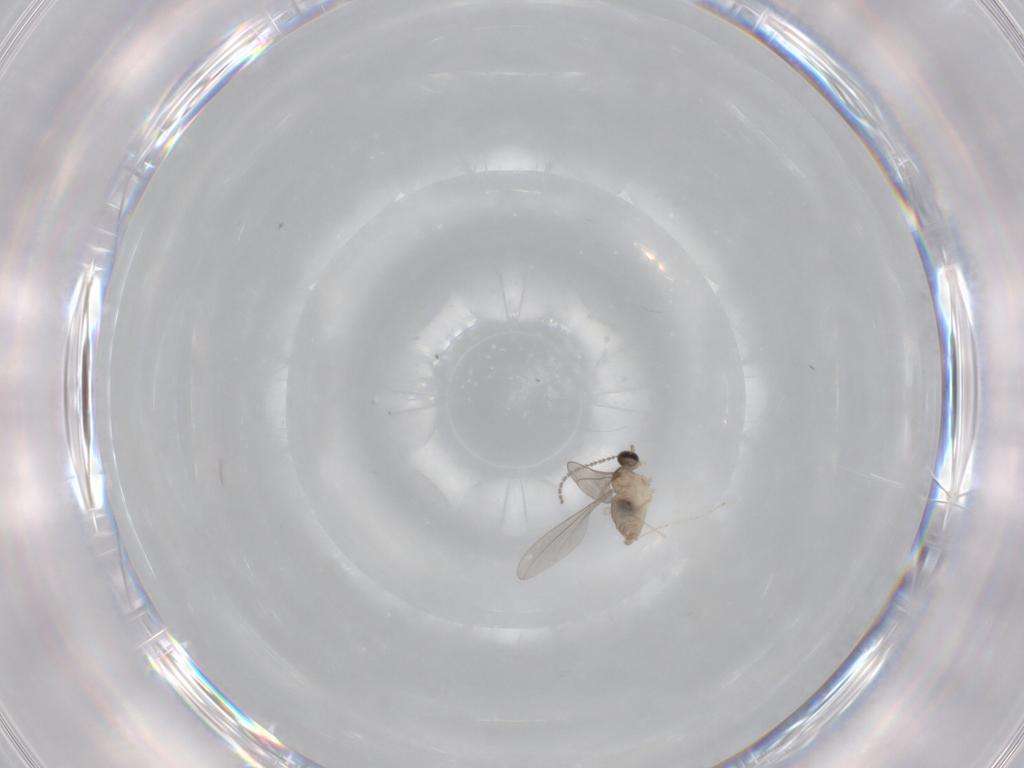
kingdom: Animalia
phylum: Arthropoda
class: Insecta
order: Diptera
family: Cecidomyiidae
